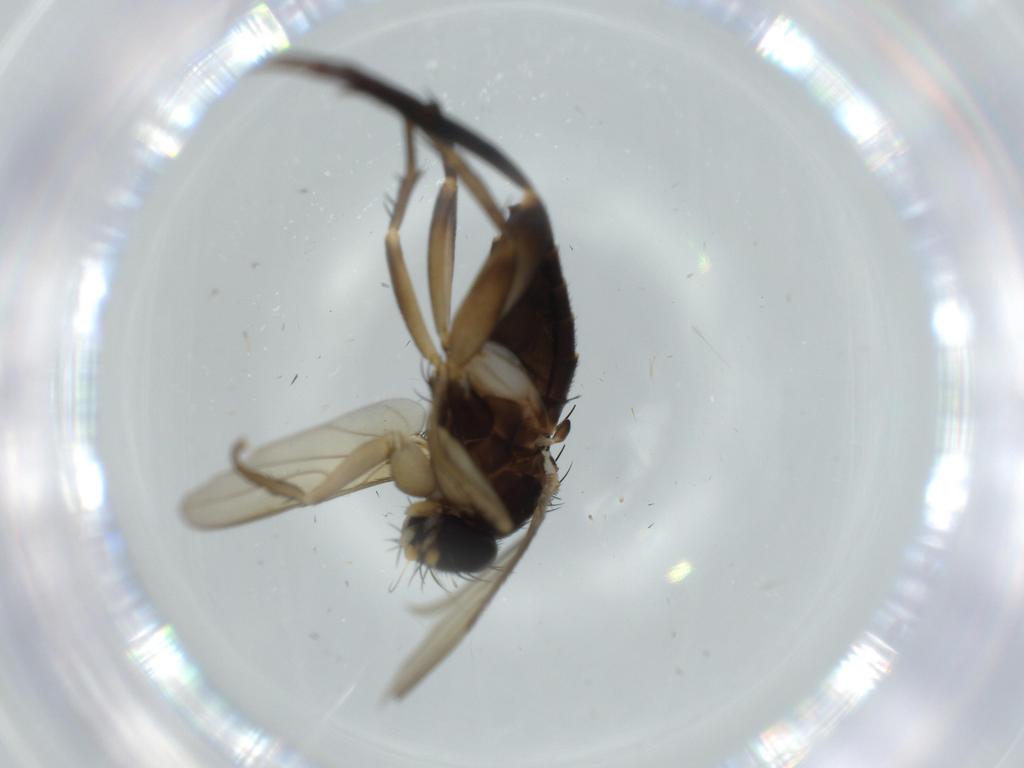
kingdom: Animalia
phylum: Arthropoda
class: Insecta
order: Diptera
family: Phoridae
